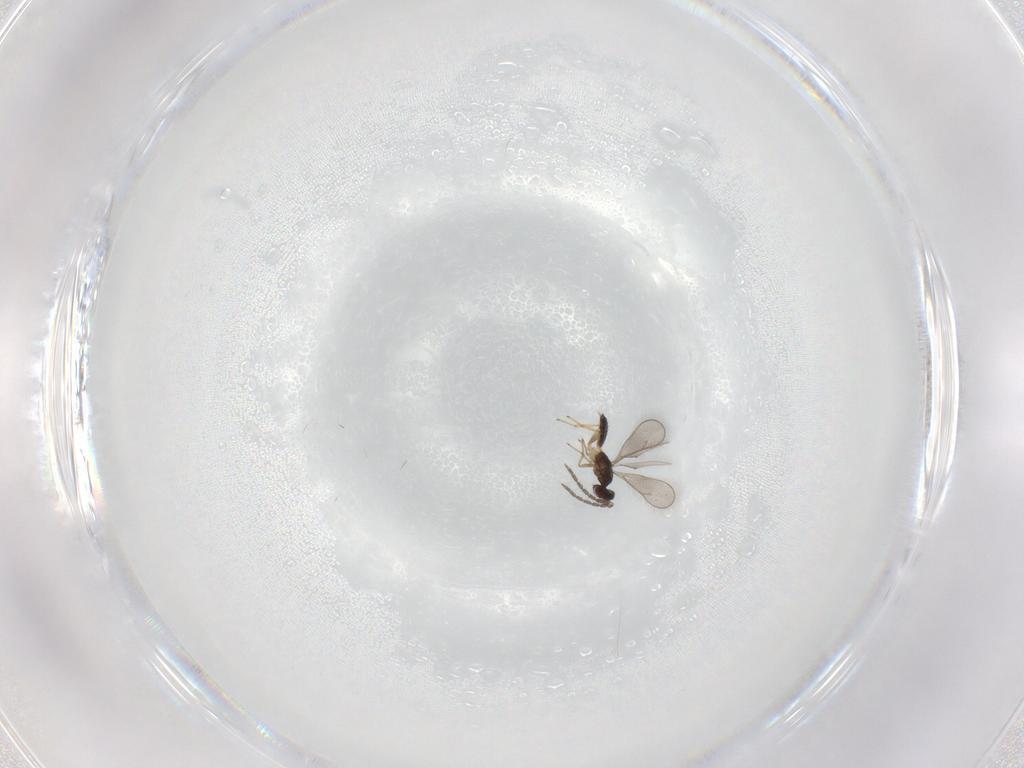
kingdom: Animalia
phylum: Arthropoda
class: Insecta
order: Hymenoptera
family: Eulophidae
